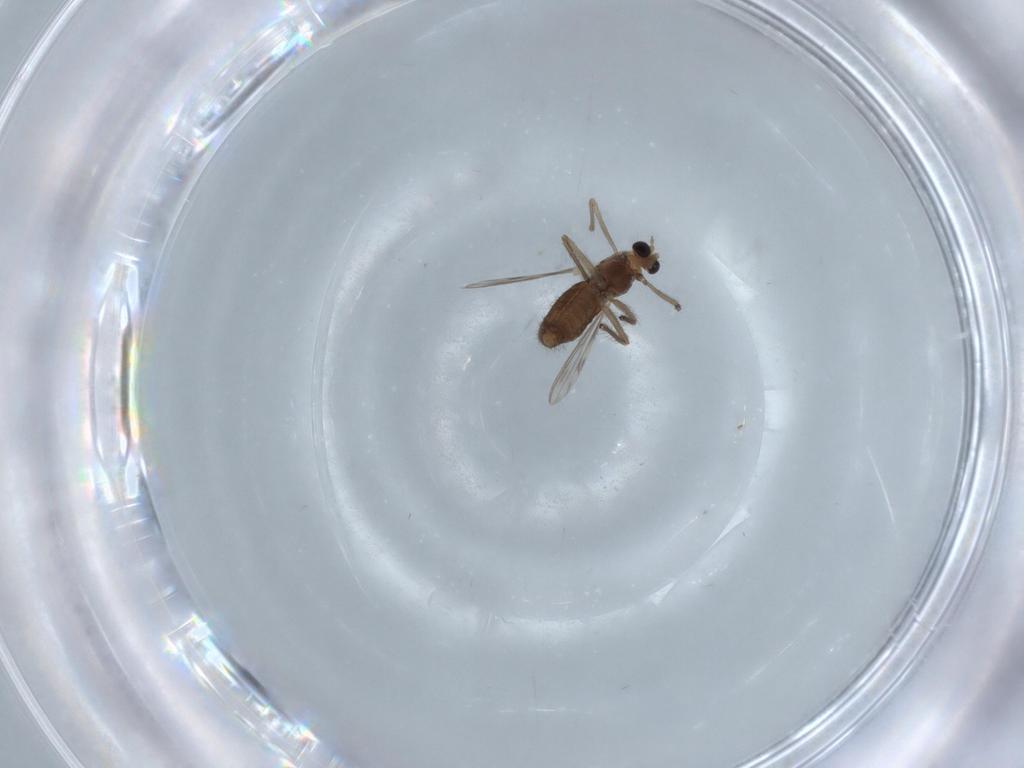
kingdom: Animalia
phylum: Arthropoda
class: Insecta
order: Diptera
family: Chironomidae
